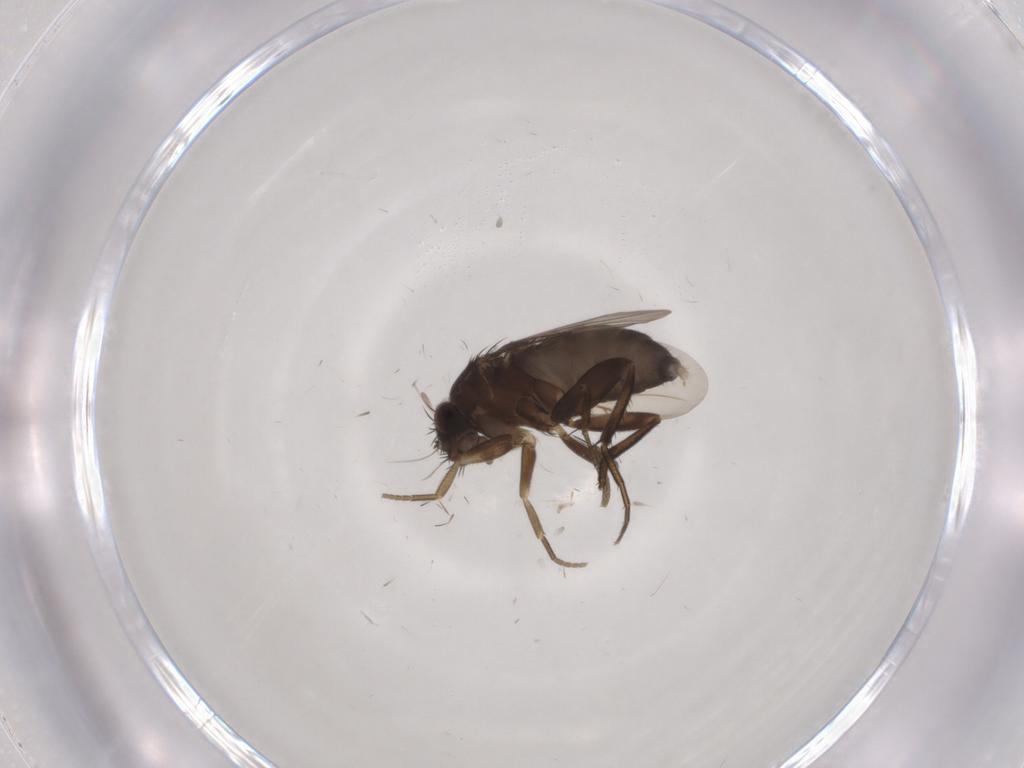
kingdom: Animalia
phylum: Arthropoda
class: Insecta
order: Diptera
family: Phoridae
